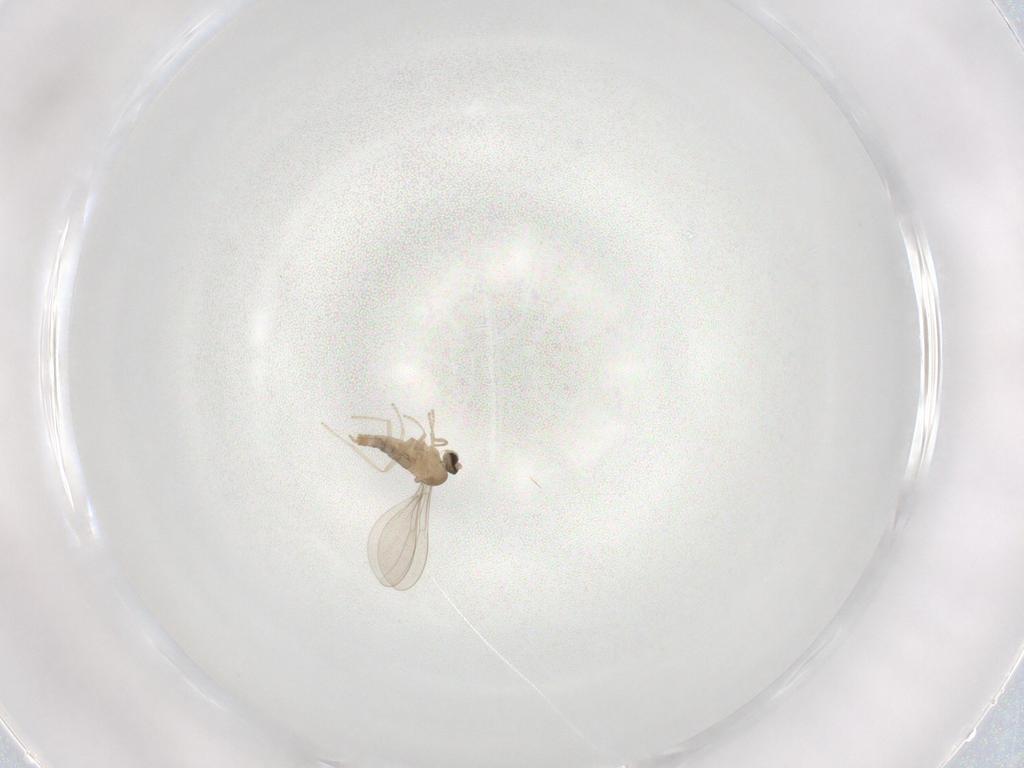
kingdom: Animalia
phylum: Arthropoda
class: Insecta
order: Diptera
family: Cecidomyiidae
